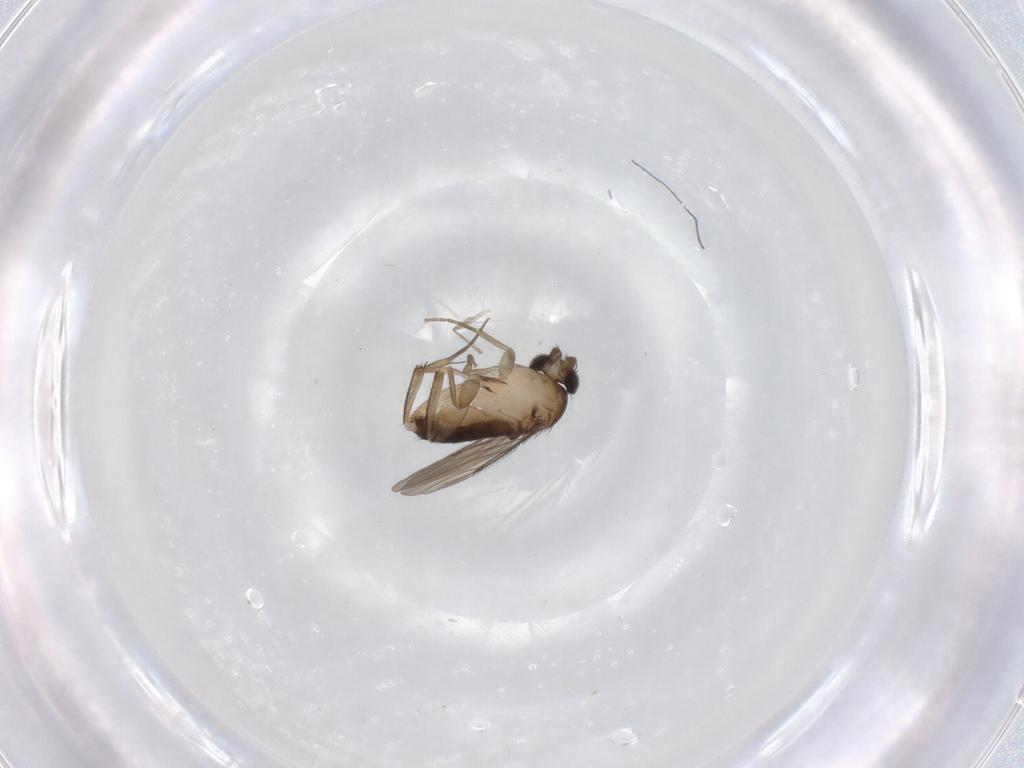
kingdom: Animalia
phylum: Arthropoda
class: Insecta
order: Diptera
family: Phoridae
